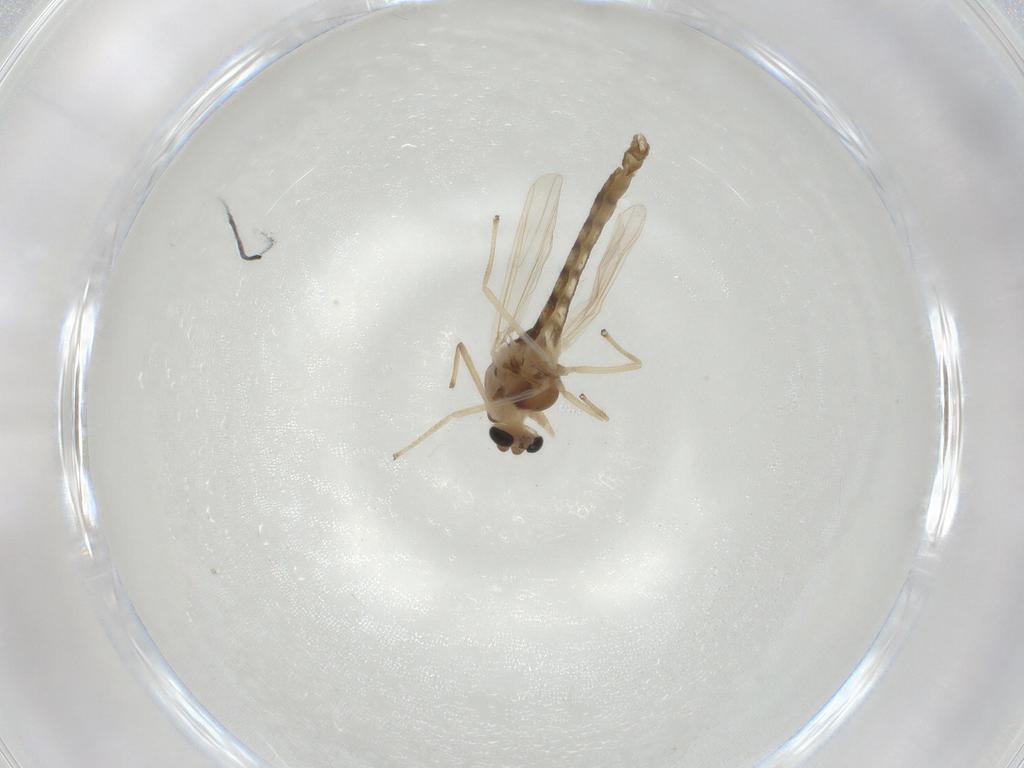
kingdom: Animalia
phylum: Arthropoda
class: Insecta
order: Diptera
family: Chironomidae
